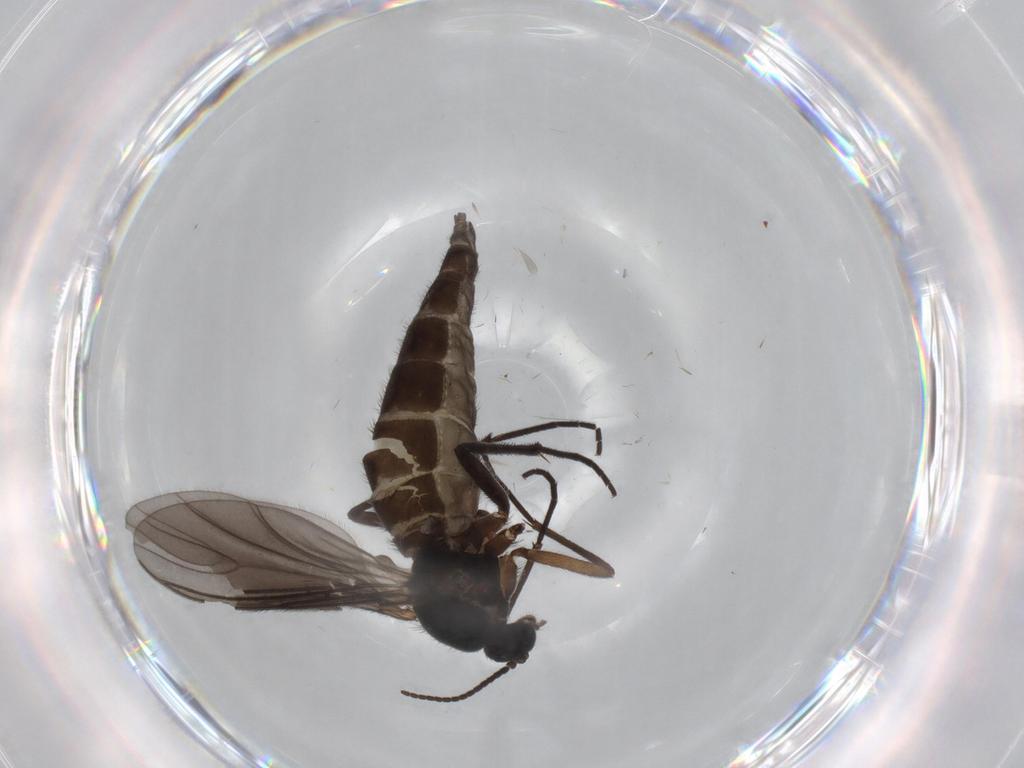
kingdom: Animalia
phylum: Arthropoda
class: Insecta
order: Diptera
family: Sciaridae
